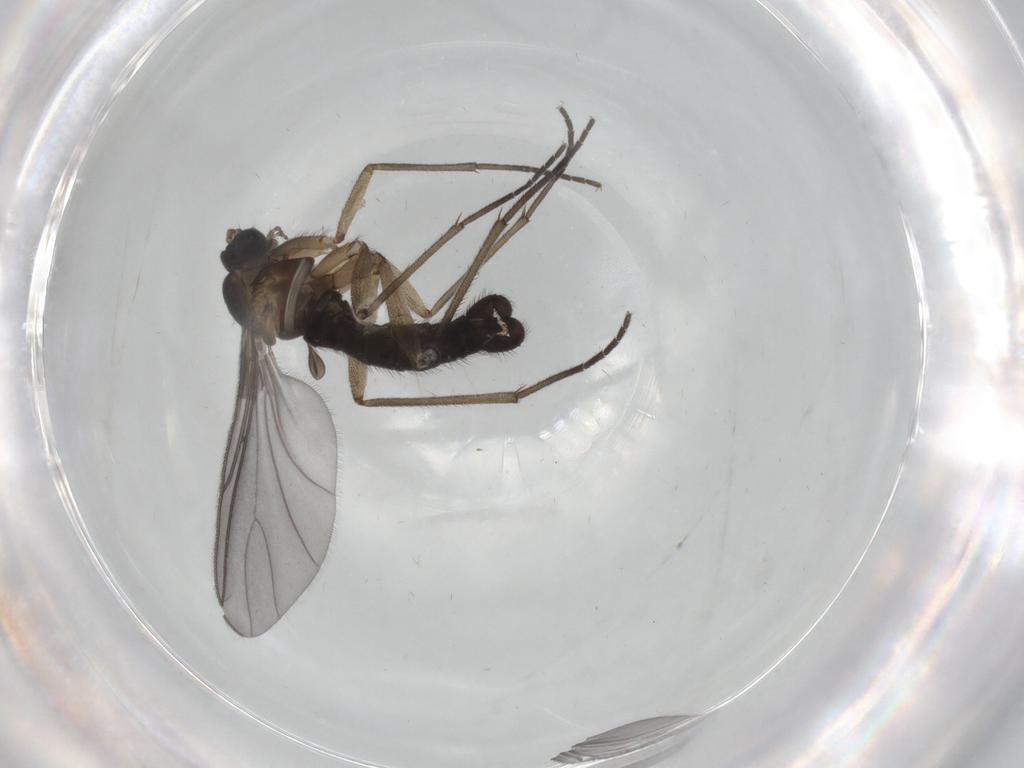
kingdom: Animalia
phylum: Arthropoda
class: Insecta
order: Diptera
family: Sciaridae
